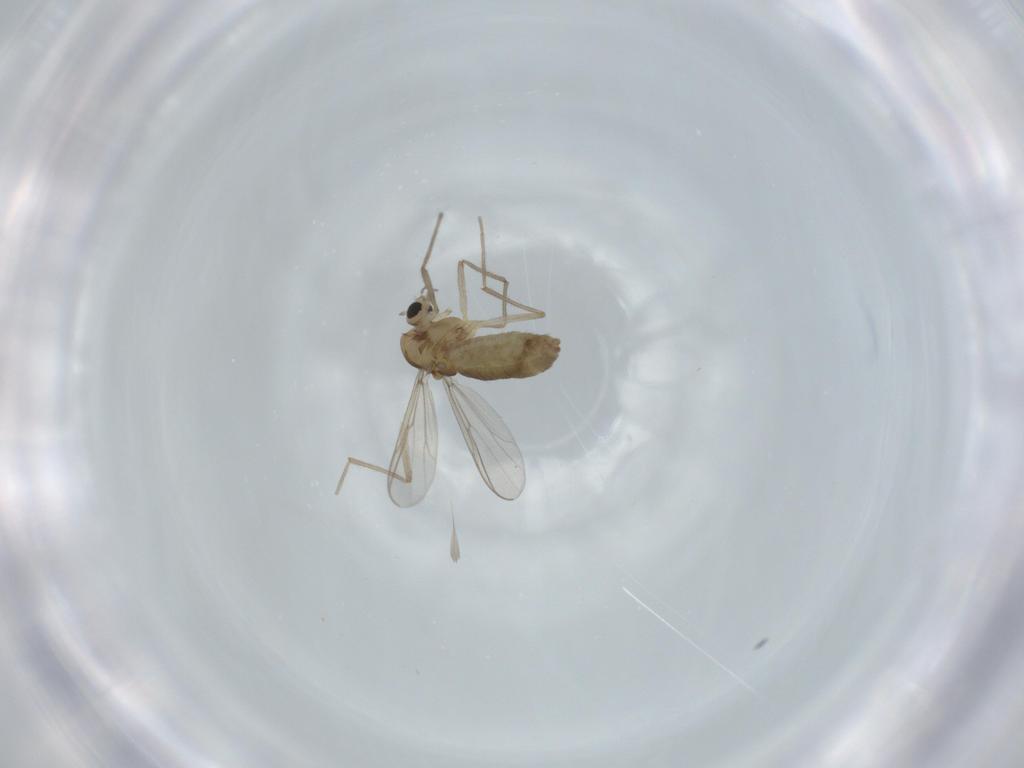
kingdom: Animalia
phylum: Arthropoda
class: Insecta
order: Diptera
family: Chironomidae
